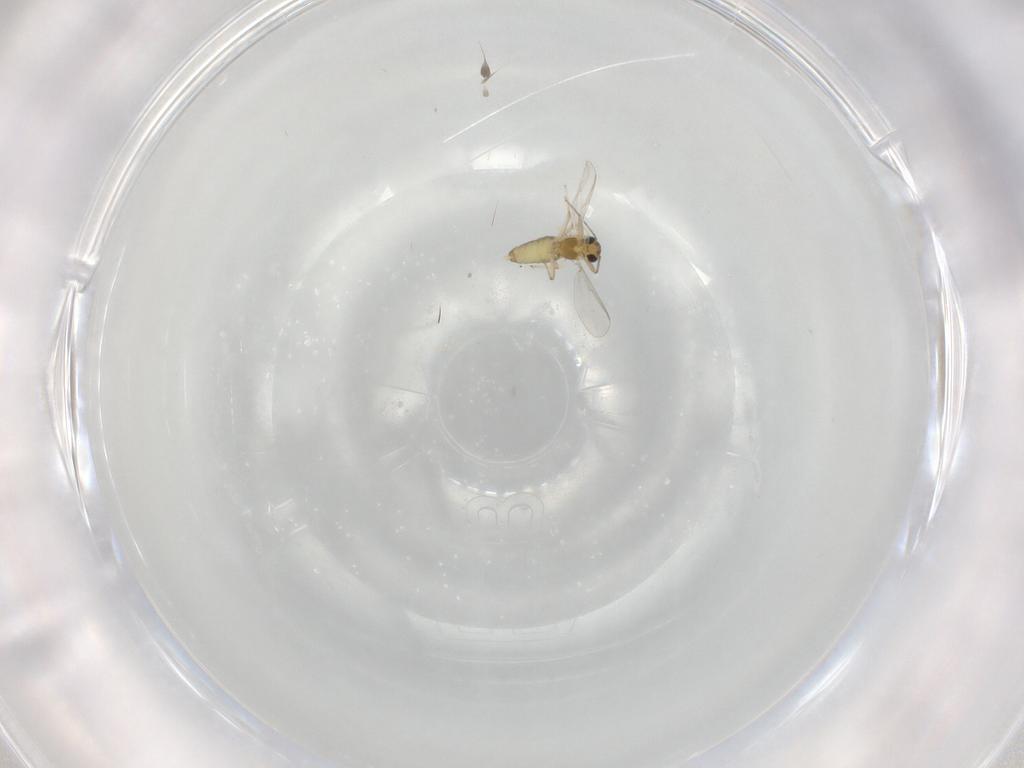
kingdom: Animalia
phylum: Arthropoda
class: Insecta
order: Diptera
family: Chironomidae
